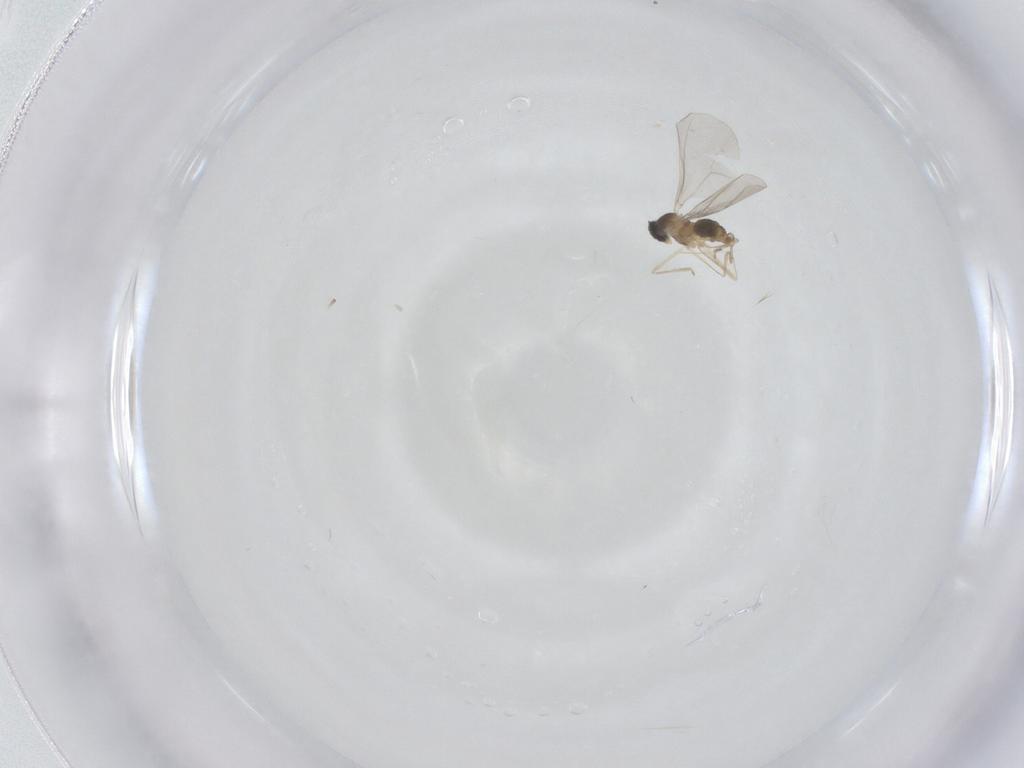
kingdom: Animalia
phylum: Arthropoda
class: Insecta
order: Diptera
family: Cecidomyiidae
